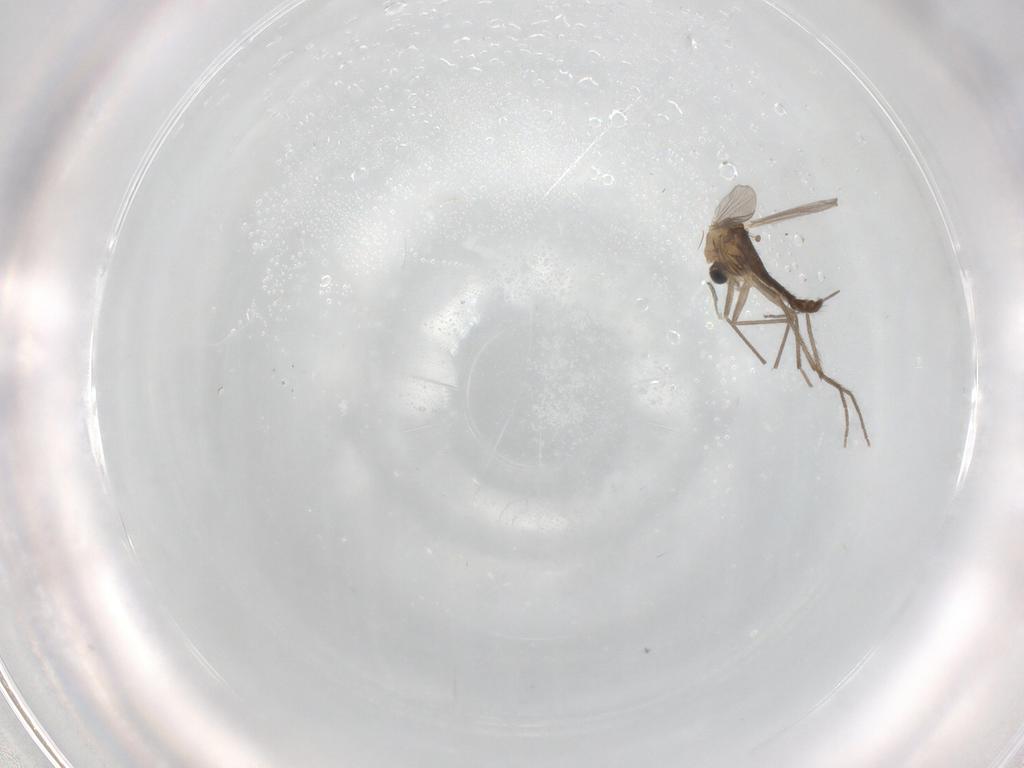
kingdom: Animalia
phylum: Arthropoda
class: Insecta
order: Diptera
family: Chironomidae
